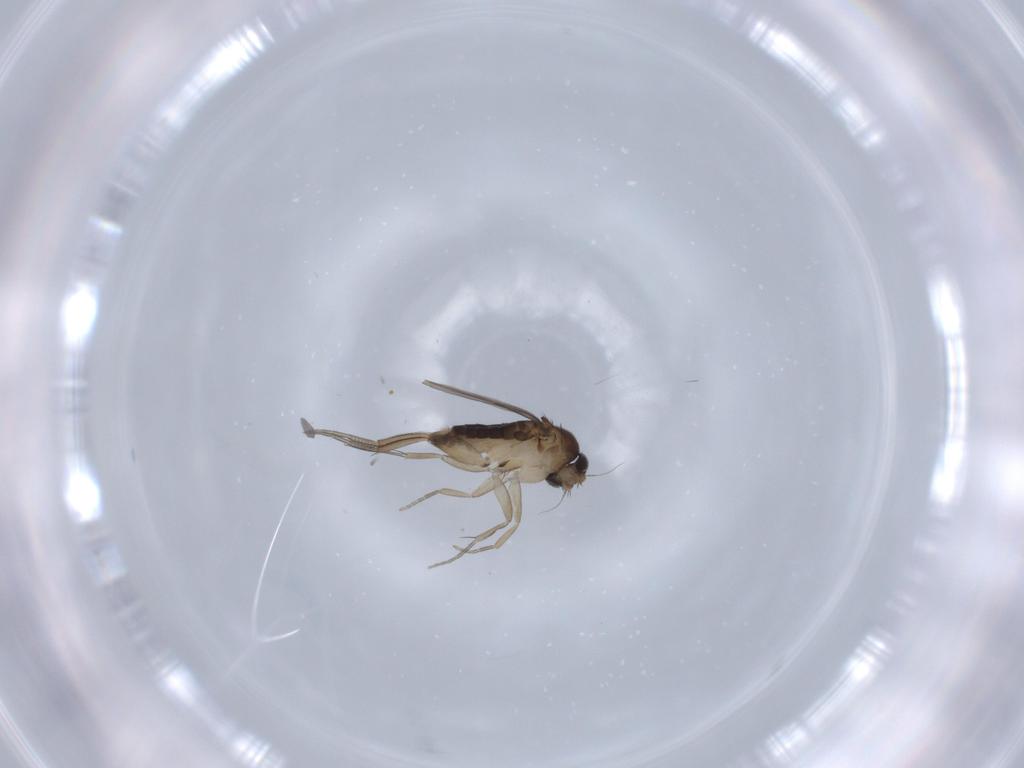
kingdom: Animalia
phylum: Arthropoda
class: Insecta
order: Diptera
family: Phoridae
